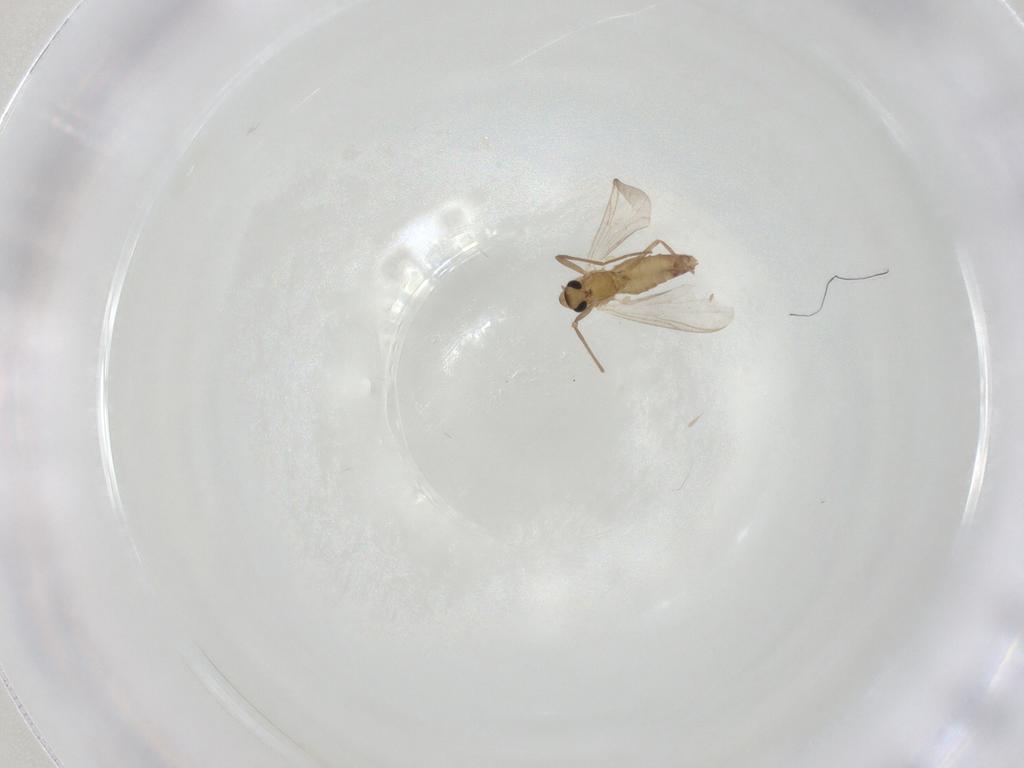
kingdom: Animalia
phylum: Arthropoda
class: Insecta
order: Diptera
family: Chironomidae
